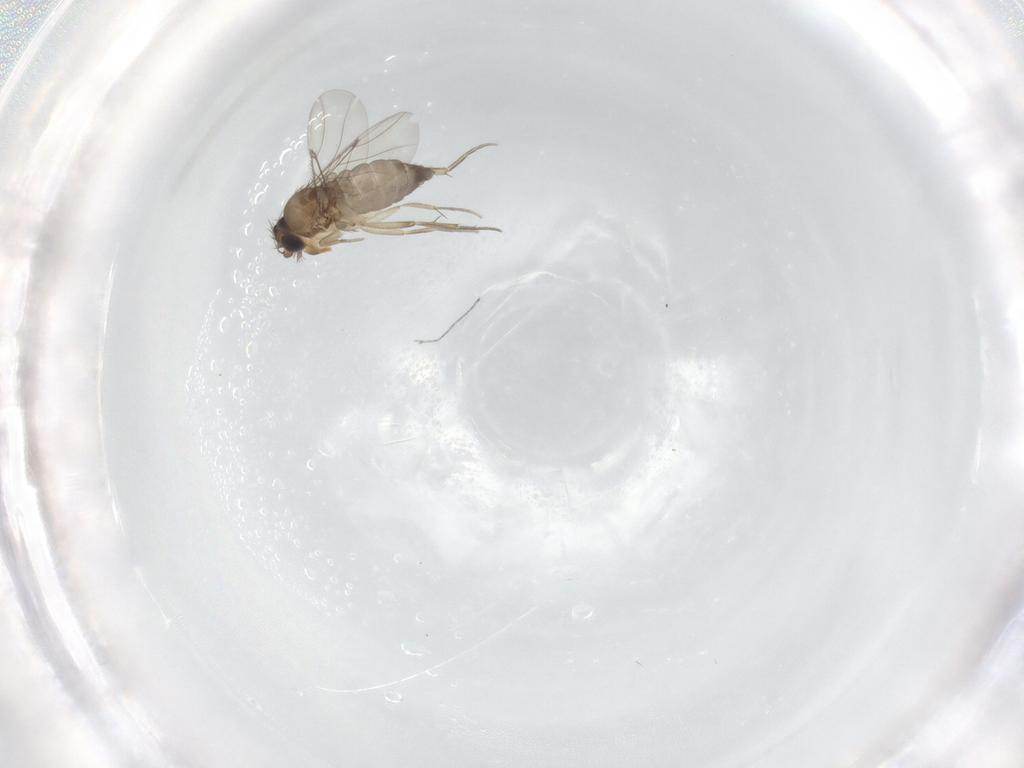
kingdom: Animalia
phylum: Arthropoda
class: Insecta
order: Diptera
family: Phoridae
